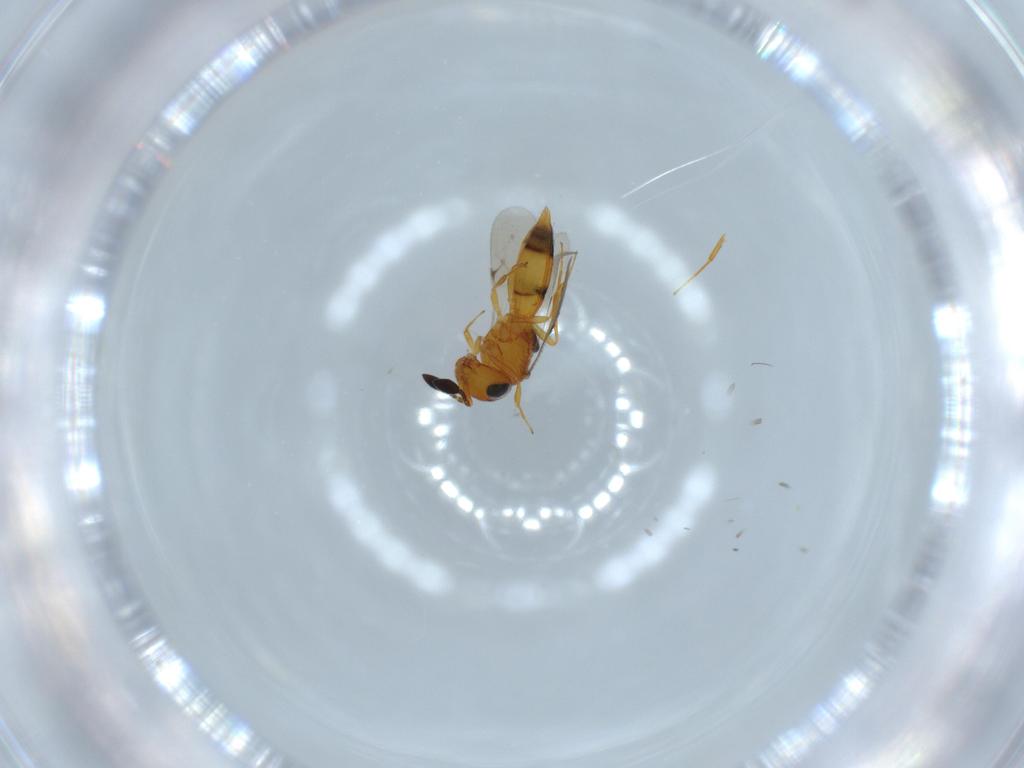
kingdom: Animalia
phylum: Arthropoda
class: Insecta
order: Hymenoptera
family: Scelionidae
